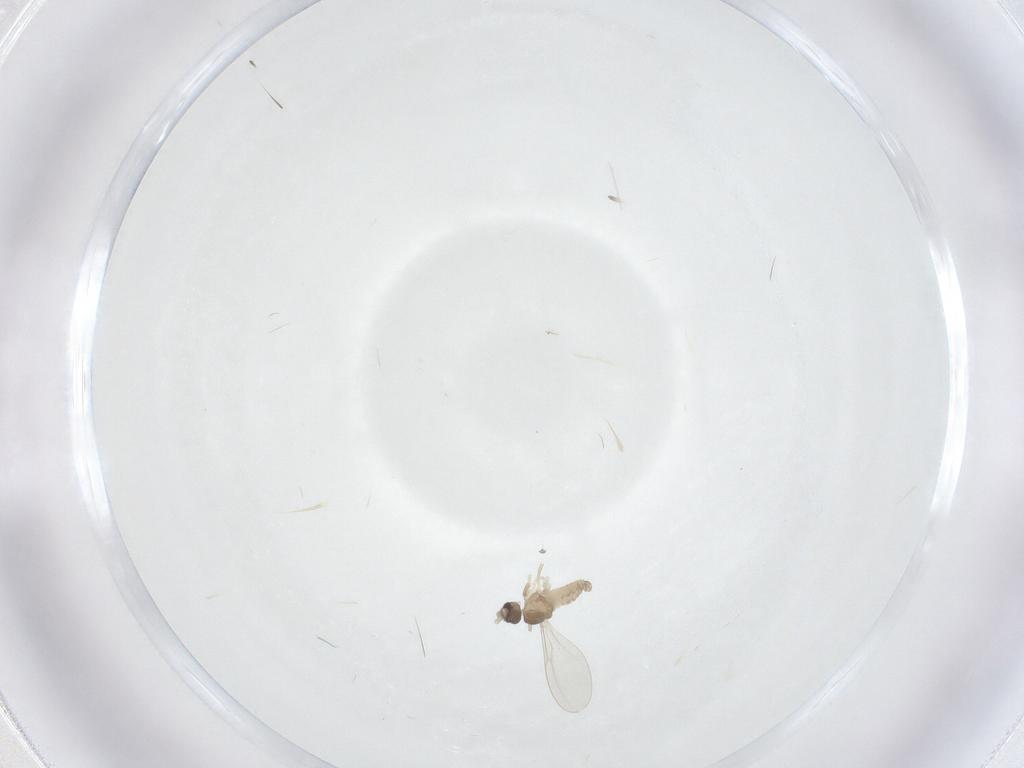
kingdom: Animalia
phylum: Arthropoda
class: Insecta
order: Diptera
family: Cecidomyiidae
